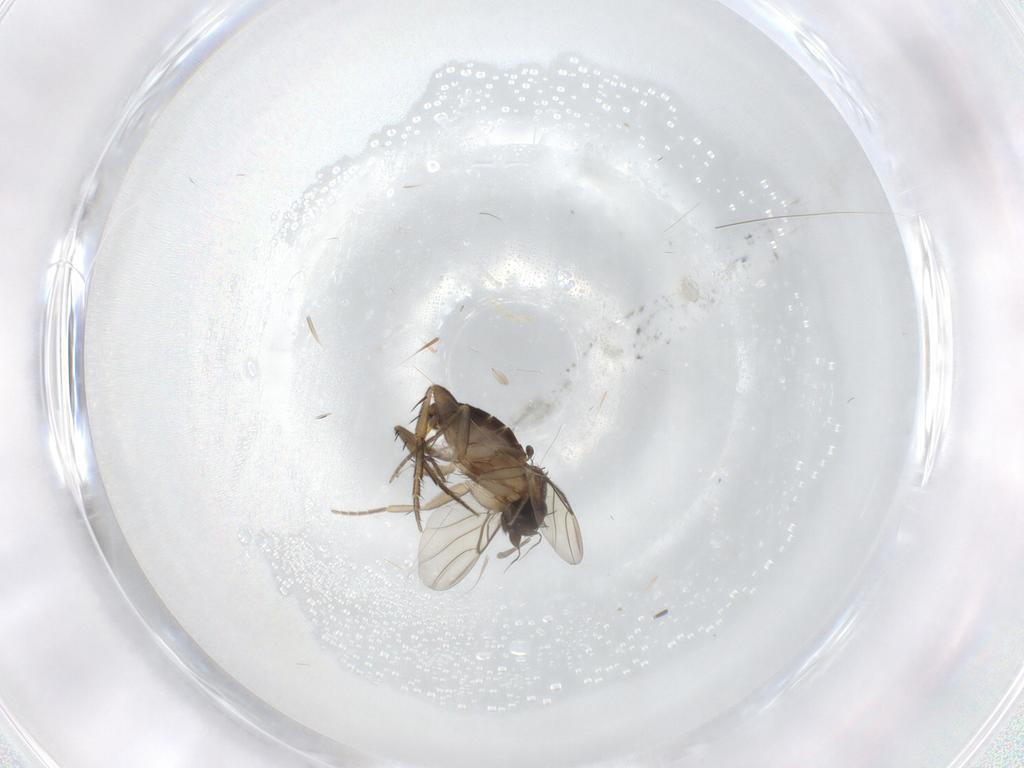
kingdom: Animalia
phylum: Arthropoda
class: Insecta
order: Diptera
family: Phoridae
